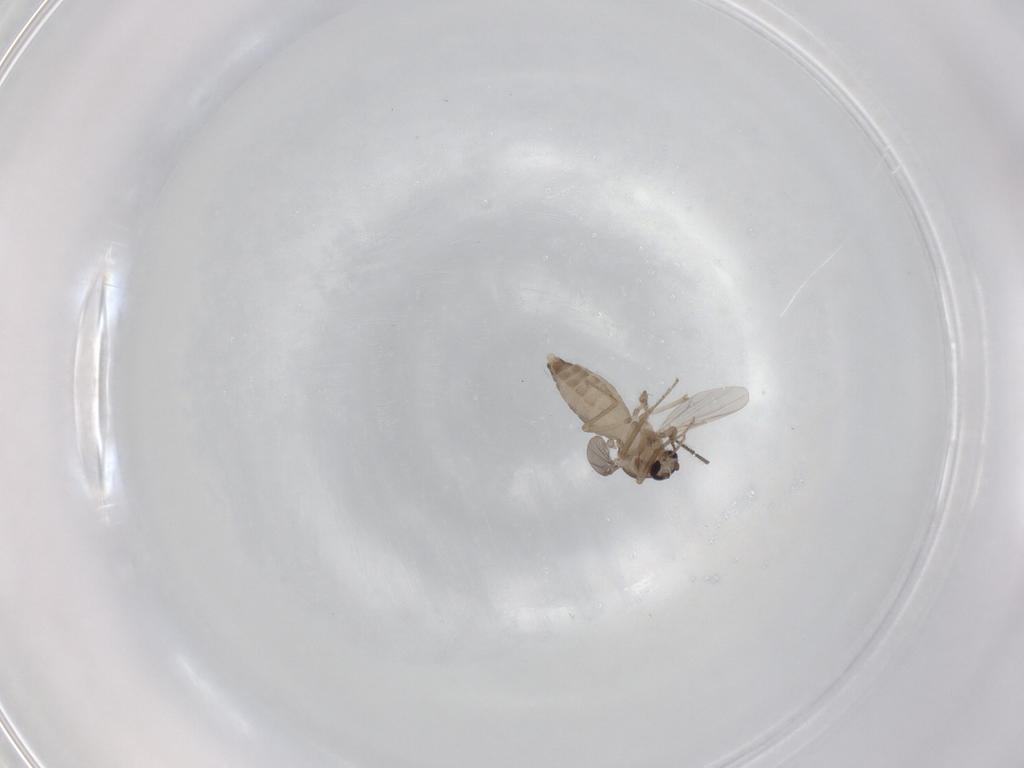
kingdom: Animalia
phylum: Arthropoda
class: Insecta
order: Diptera
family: Sciaridae
